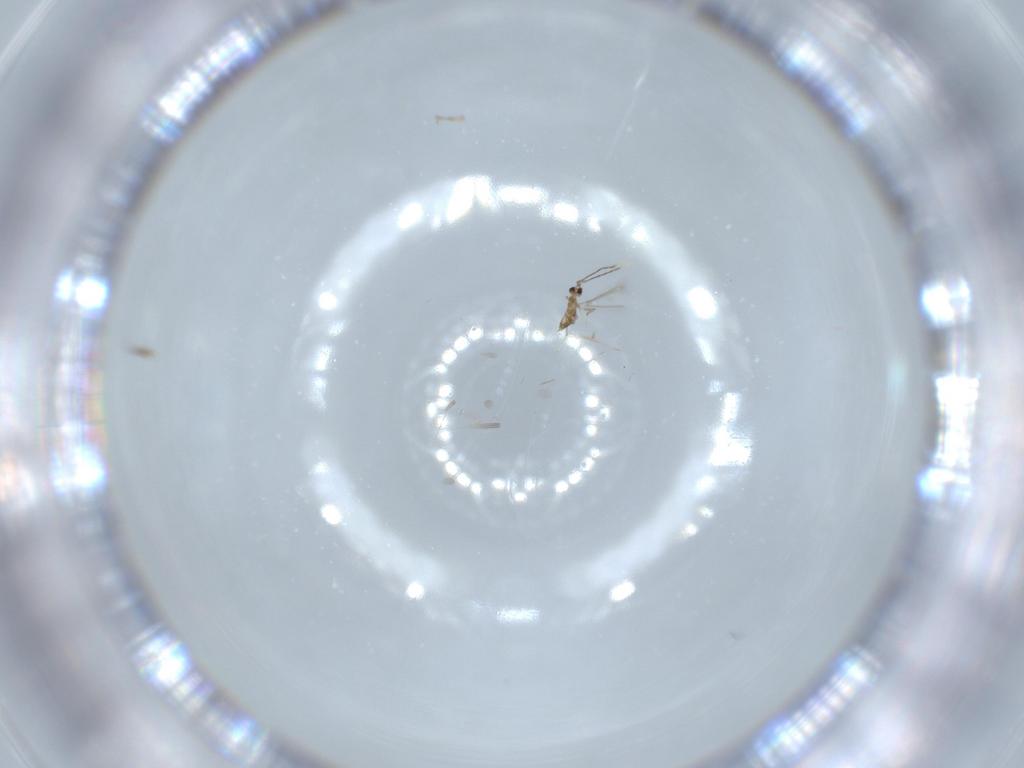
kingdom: Animalia
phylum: Arthropoda
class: Insecta
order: Hymenoptera
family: Mymaridae
